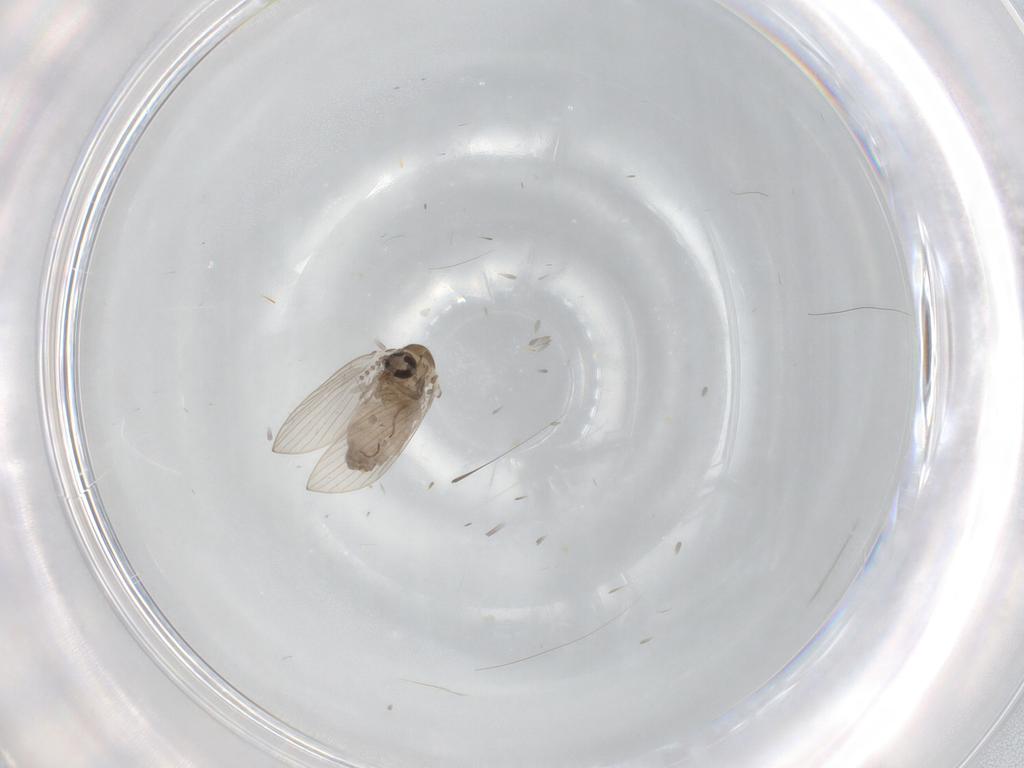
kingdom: Animalia
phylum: Arthropoda
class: Insecta
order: Diptera
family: Psychodidae
